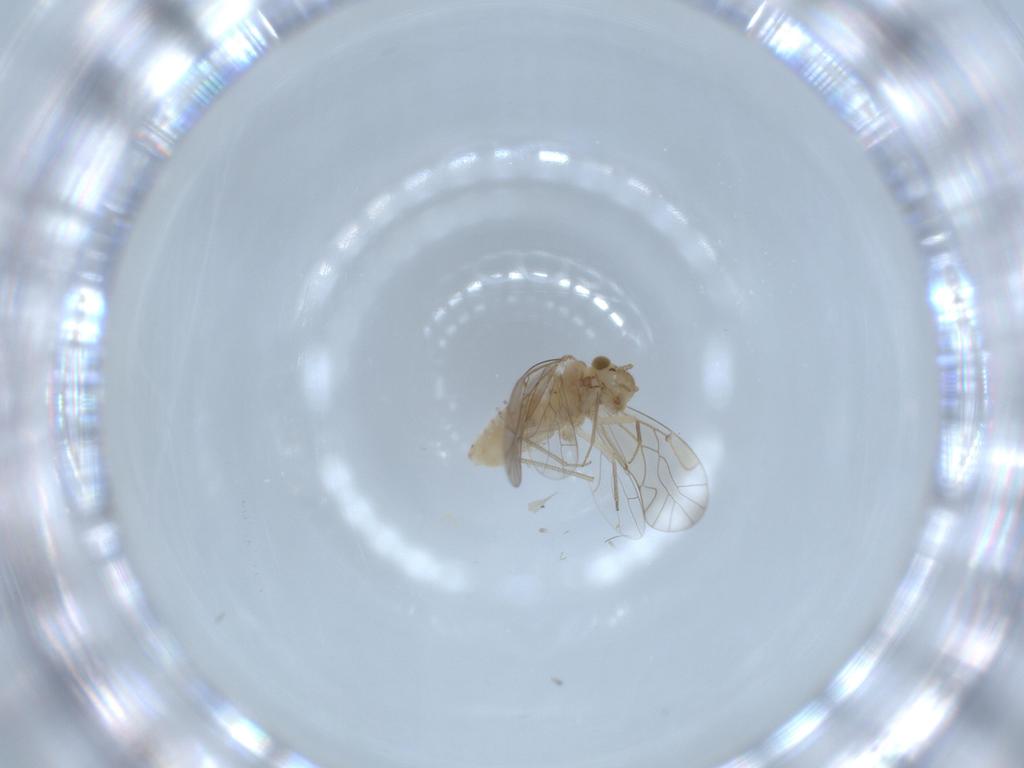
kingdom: Animalia
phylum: Arthropoda
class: Insecta
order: Psocodea
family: Lachesillidae
